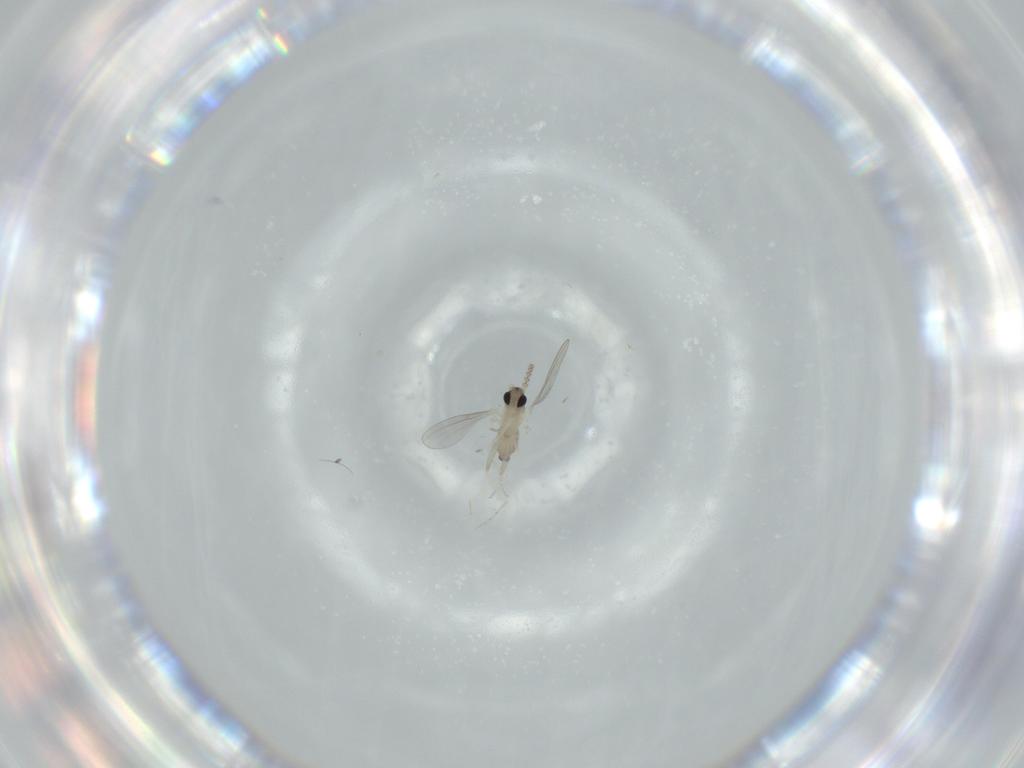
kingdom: Animalia
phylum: Arthropoda
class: Insecta
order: Diptera
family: Cecidomyiidae
